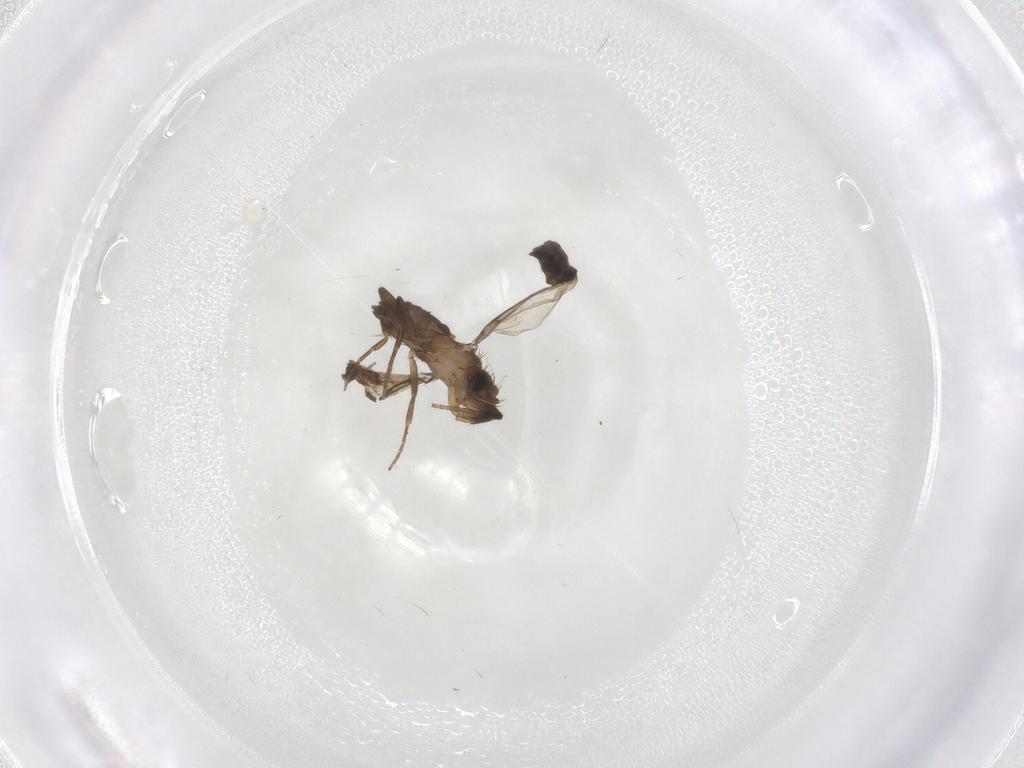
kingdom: Animalia
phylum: Arthropoda
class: Insecta
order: Diptera
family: Phoridae
